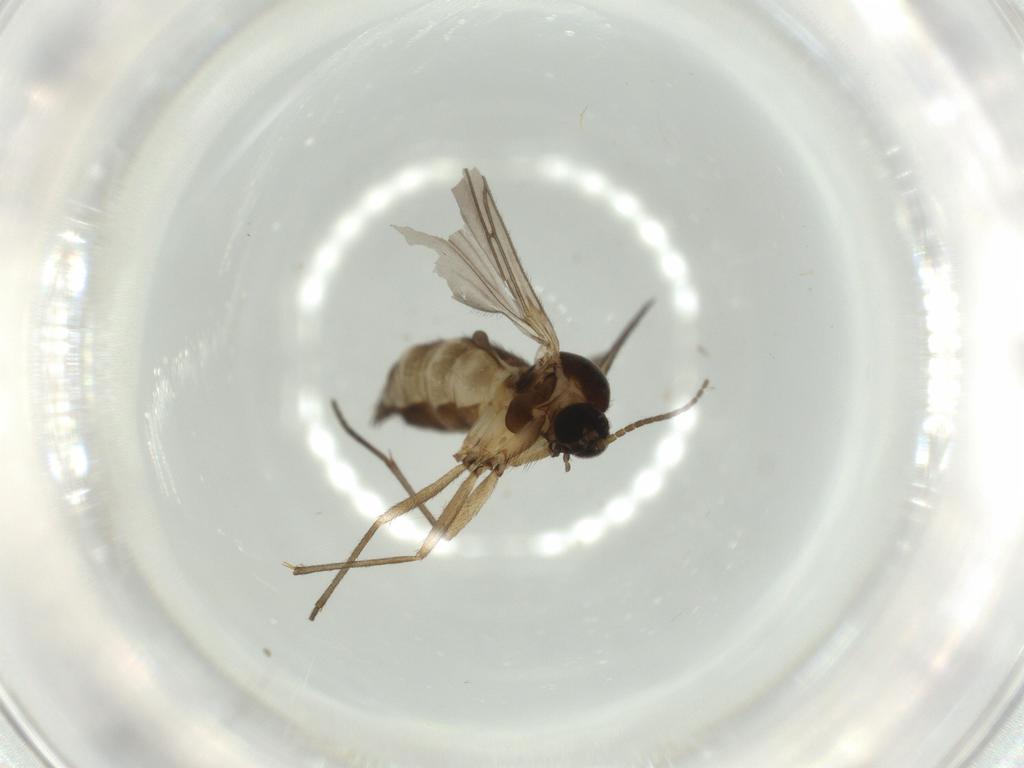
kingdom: Animalia
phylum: Arthropoda
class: Insecta
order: Diptera
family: Sciaridae
